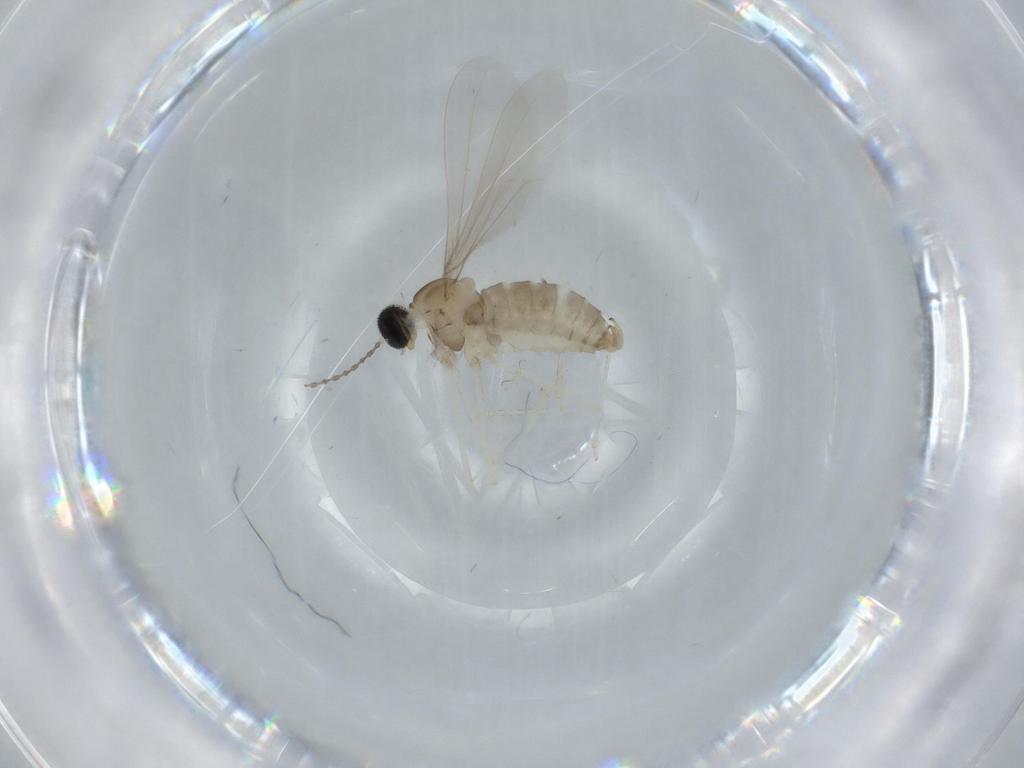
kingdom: Animalia
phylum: Arthropoda
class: Insecta
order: Diptera
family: Cecidomyiidae
